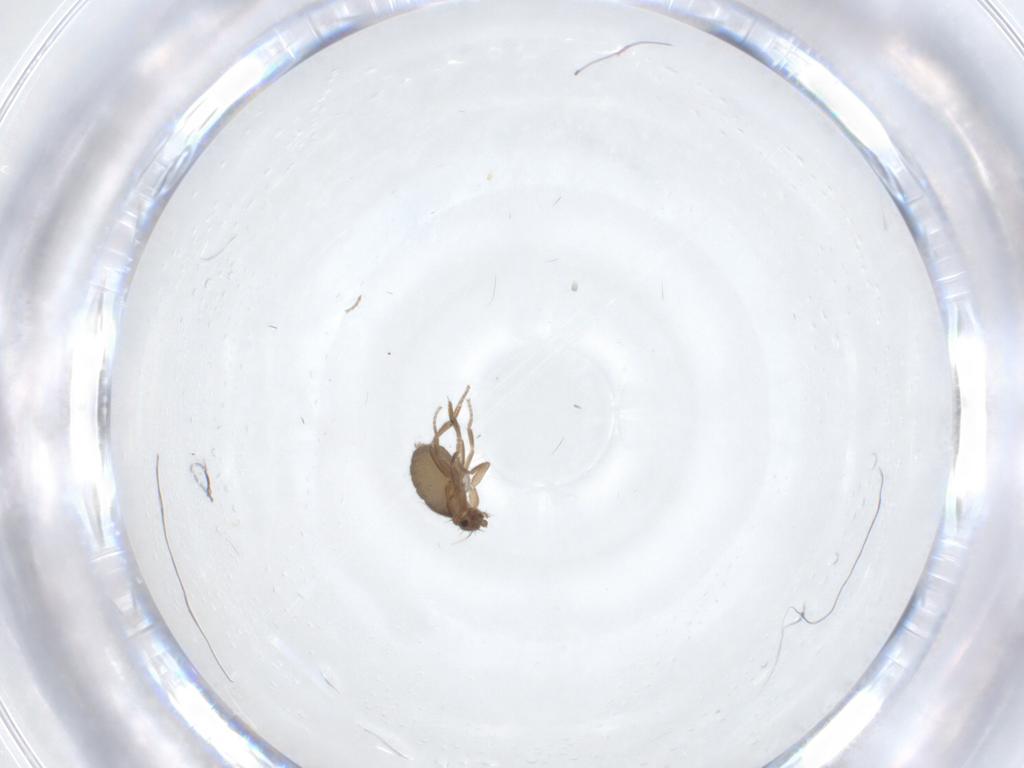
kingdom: Animalia
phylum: Arthropoda
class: Insecta
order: Diptera
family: Phoridae
